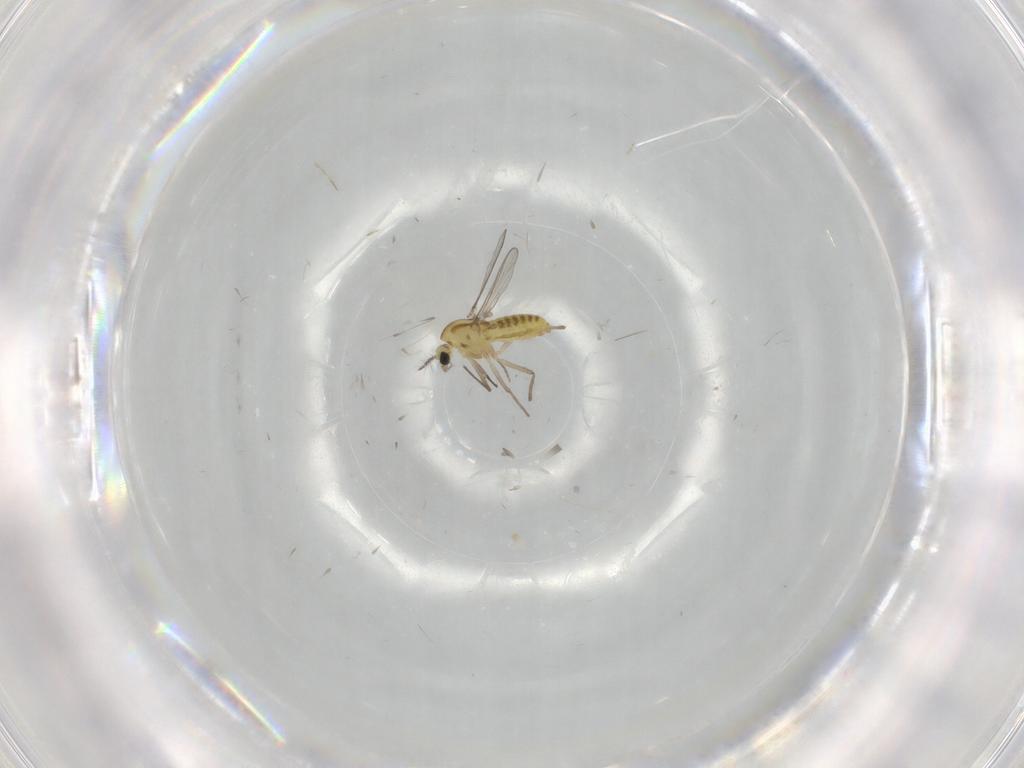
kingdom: Animalia
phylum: Arthropoda
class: Insecta
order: Diptera
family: Chironomidae
